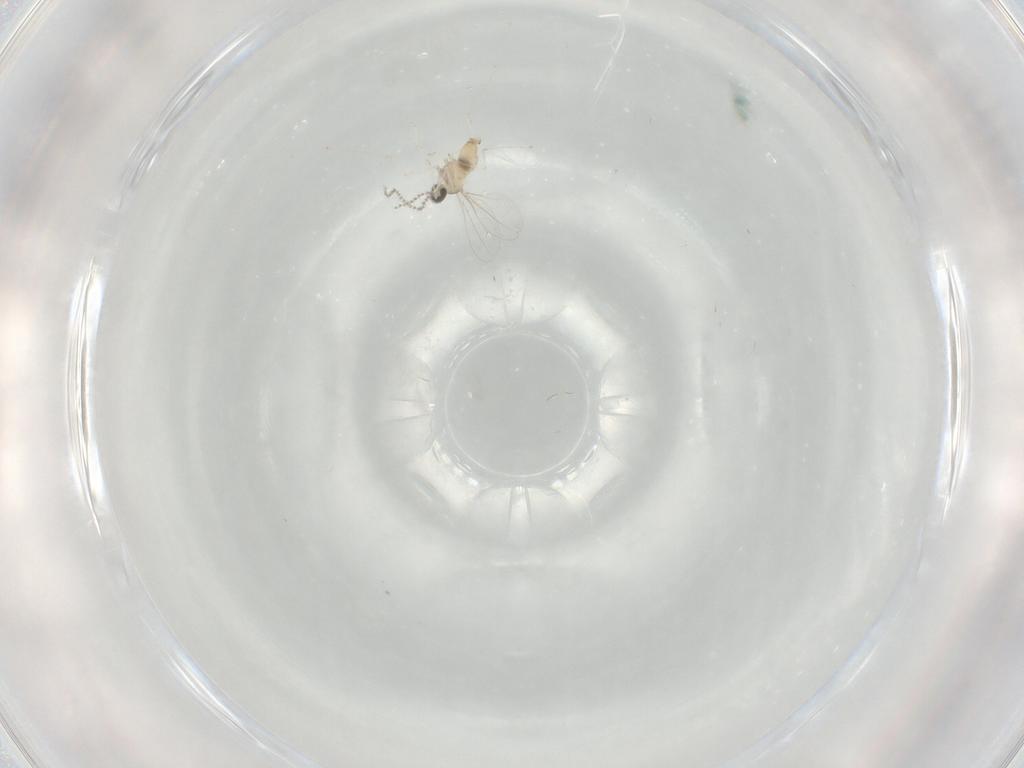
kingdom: Animalia
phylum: Arthropoda
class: Insecta
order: Diptera
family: Cecidomyiidae
